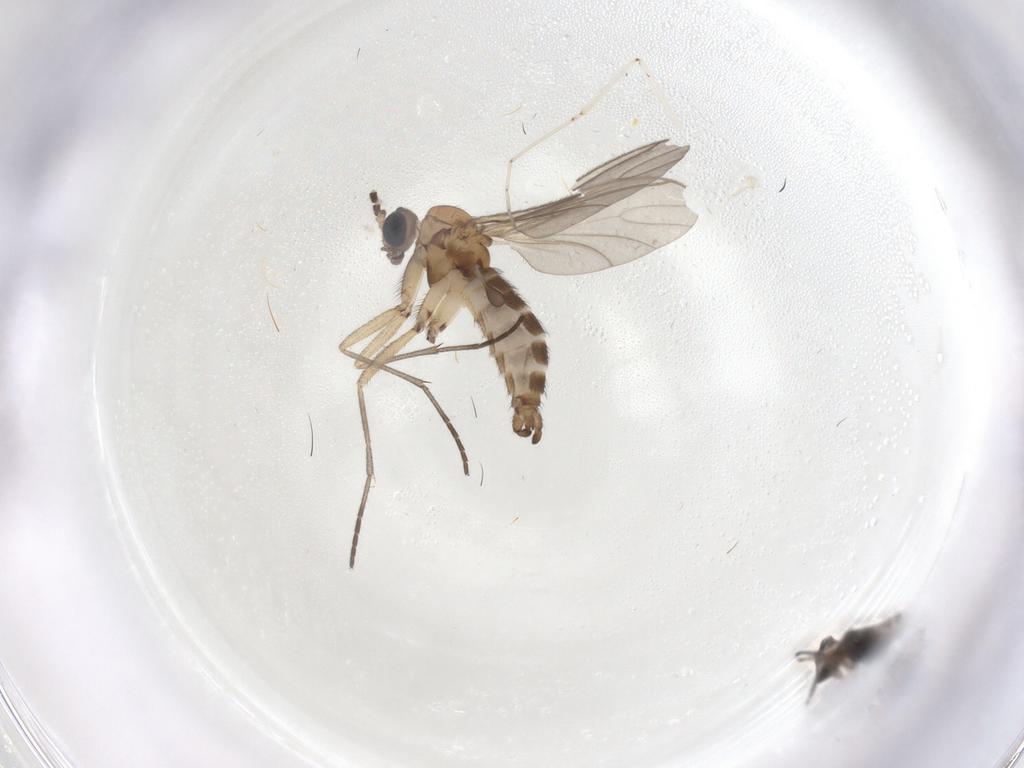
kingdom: Animalia
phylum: Arthropoda
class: Insecta
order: Diptera
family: Sciaridae
